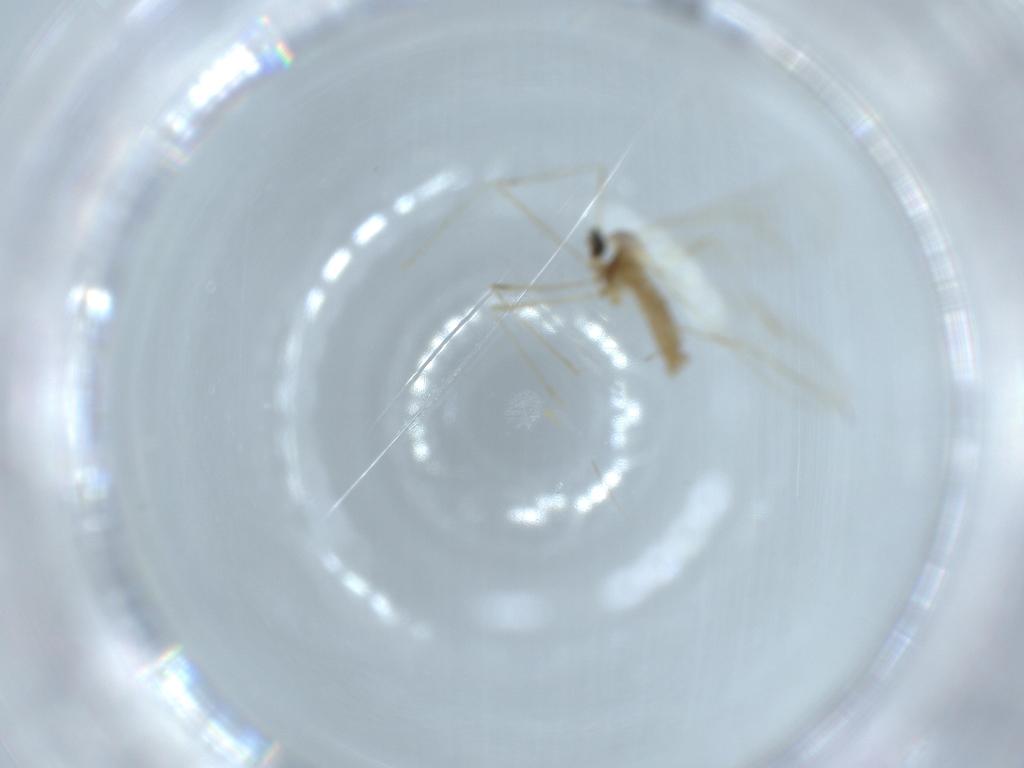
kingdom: Animalia
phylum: Arthropoda
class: Insecta
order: Diptera
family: Cecidomyiidae
